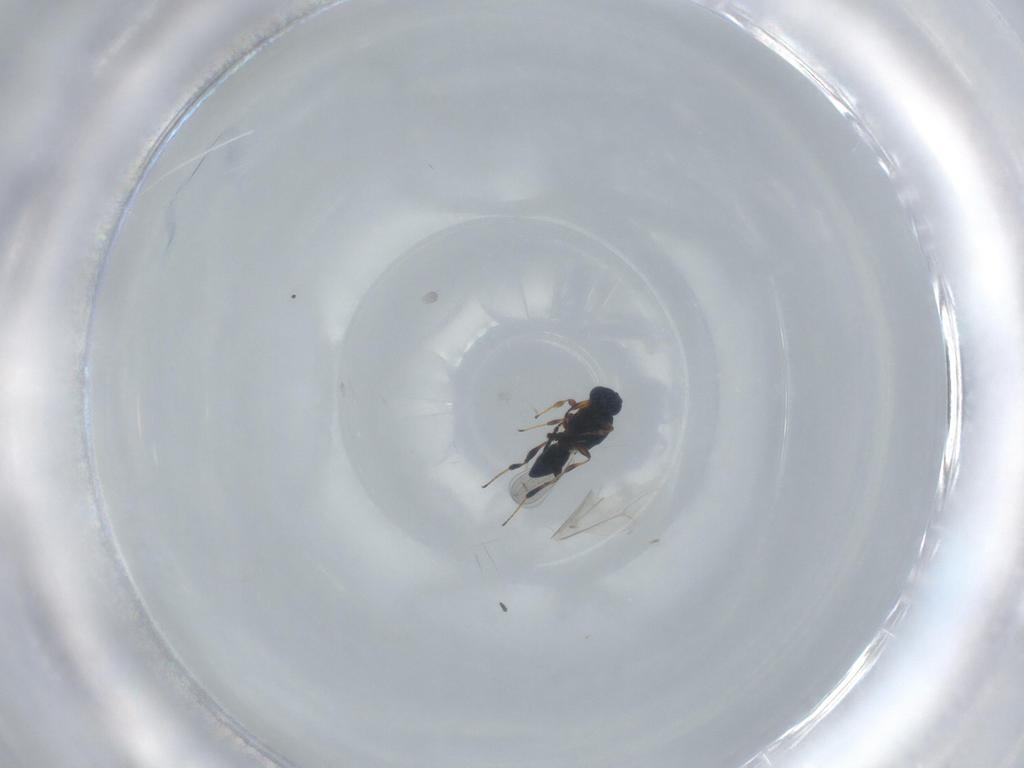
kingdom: Animalia
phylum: Arthropoda
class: Insecta
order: Hymenoptera
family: Platygastridae
